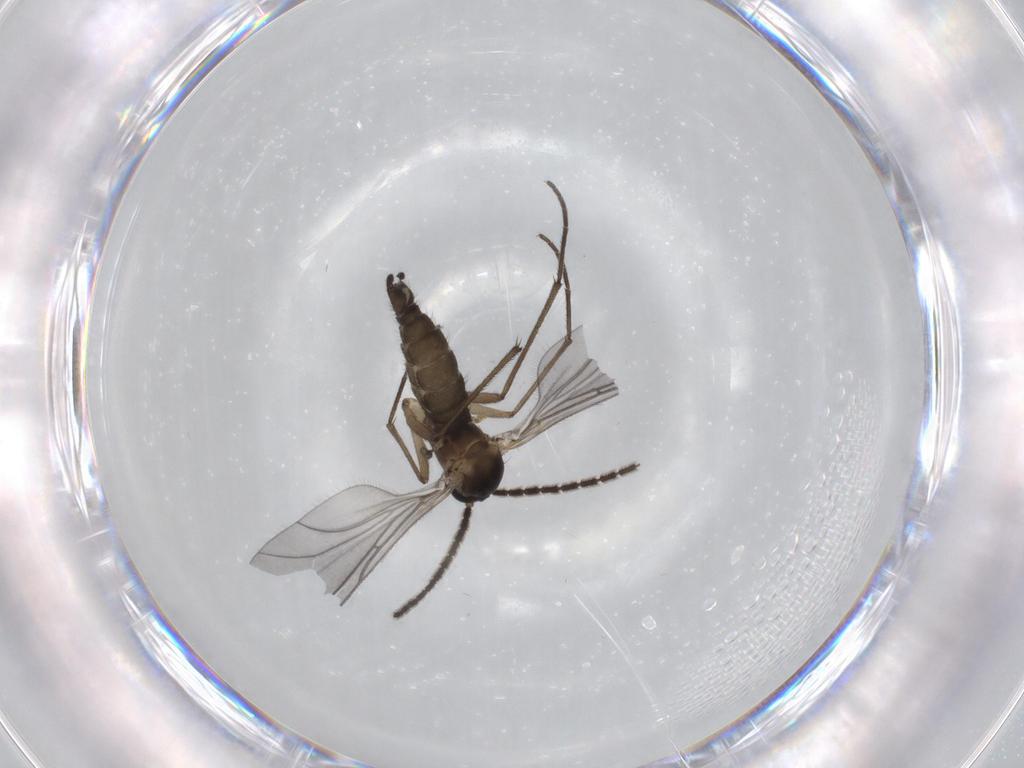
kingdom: Animalia
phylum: Arthropoda
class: Insecta
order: Diptera
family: Sciaridae
